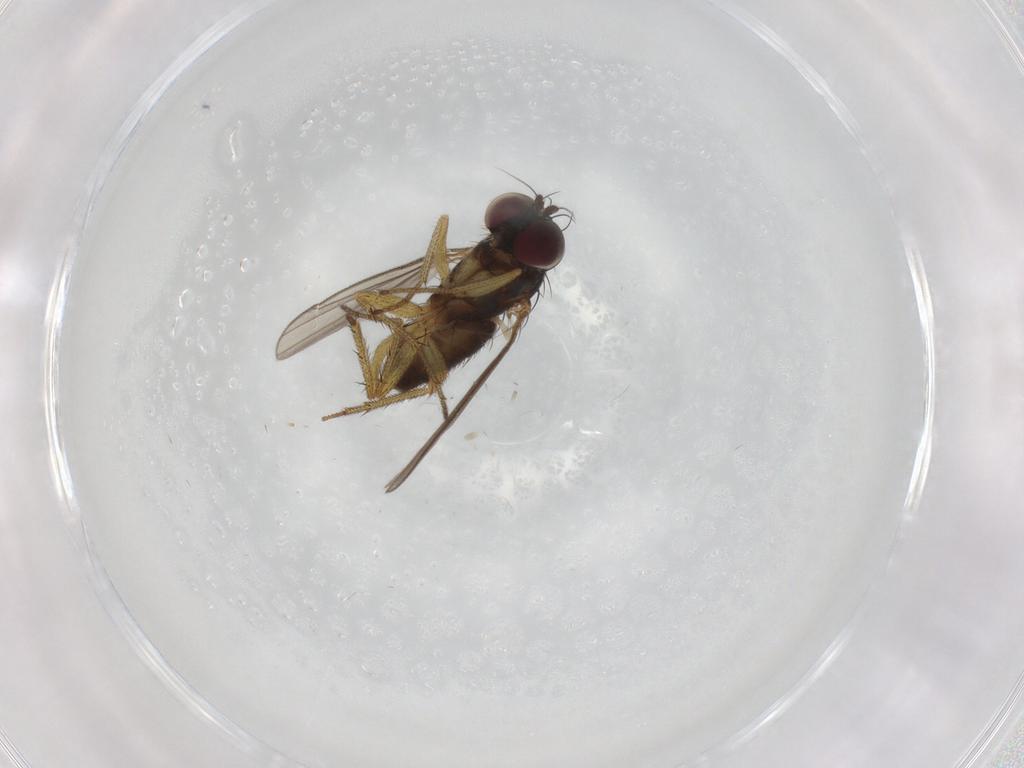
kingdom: Animalia
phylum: Arthropoda
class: Insecta
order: Diptera
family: Dolichopodidae
